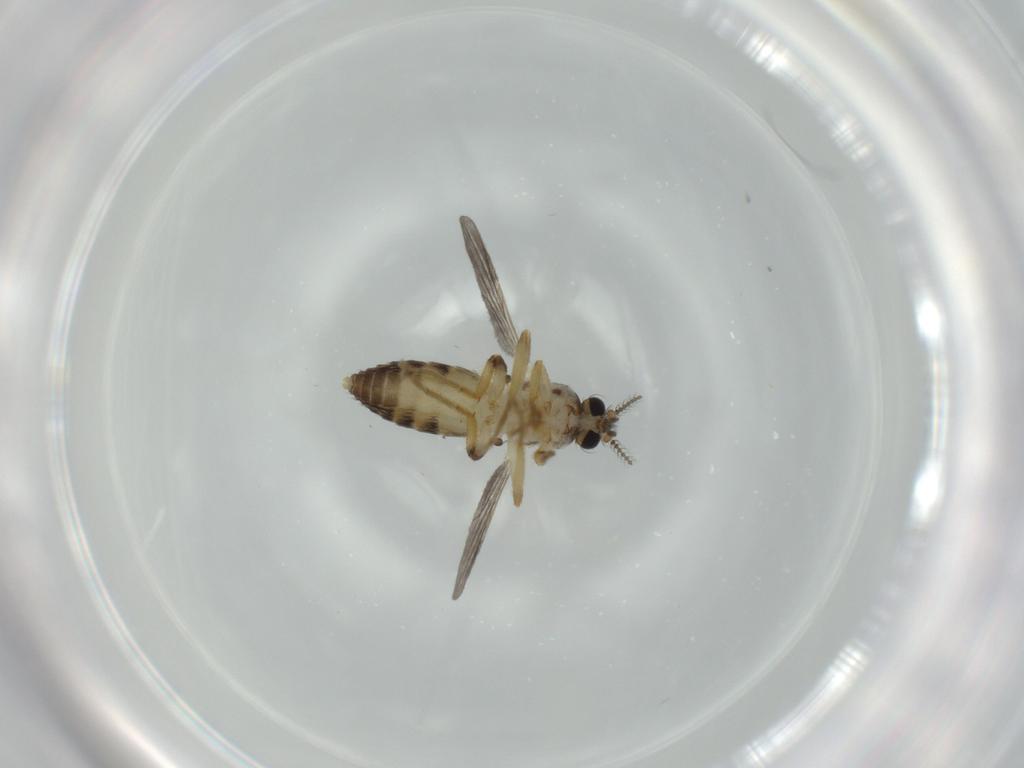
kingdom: Animalia
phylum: Arthropoda
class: Insecta
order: Diptera
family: Ceratopogonidae
